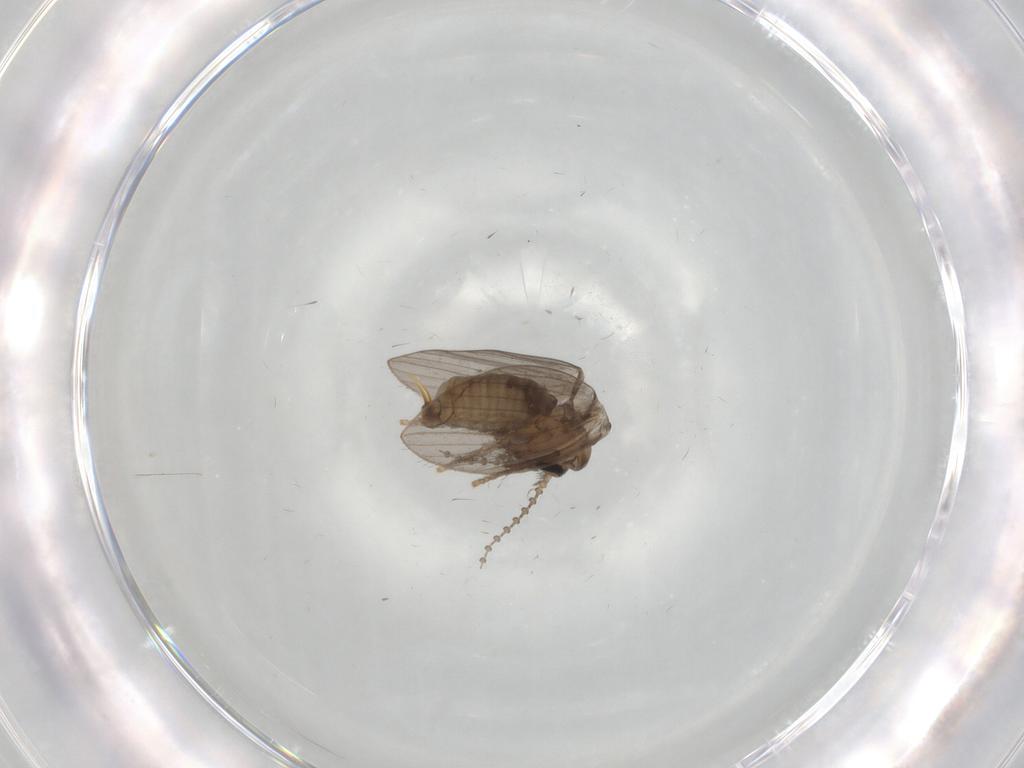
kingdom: Animalia
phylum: Arthropoda
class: Insecta
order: Diptera
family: Psychodidae
